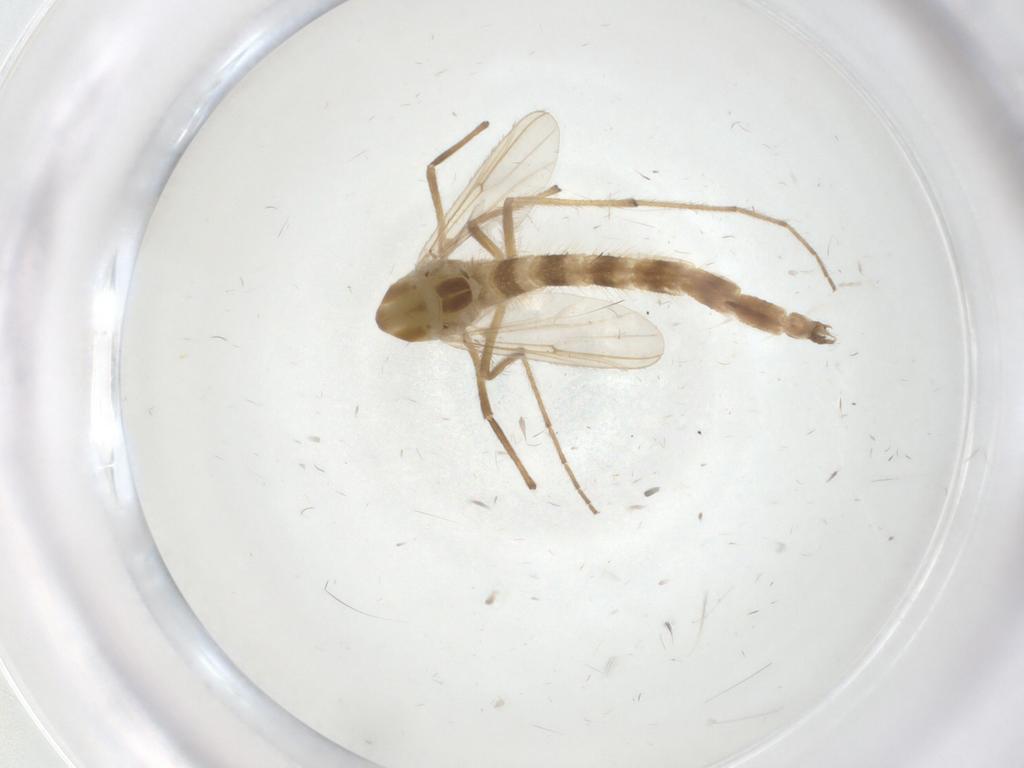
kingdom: Animalia
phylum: Arthropoda
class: Insecta
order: Diptera
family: Chironomidae
